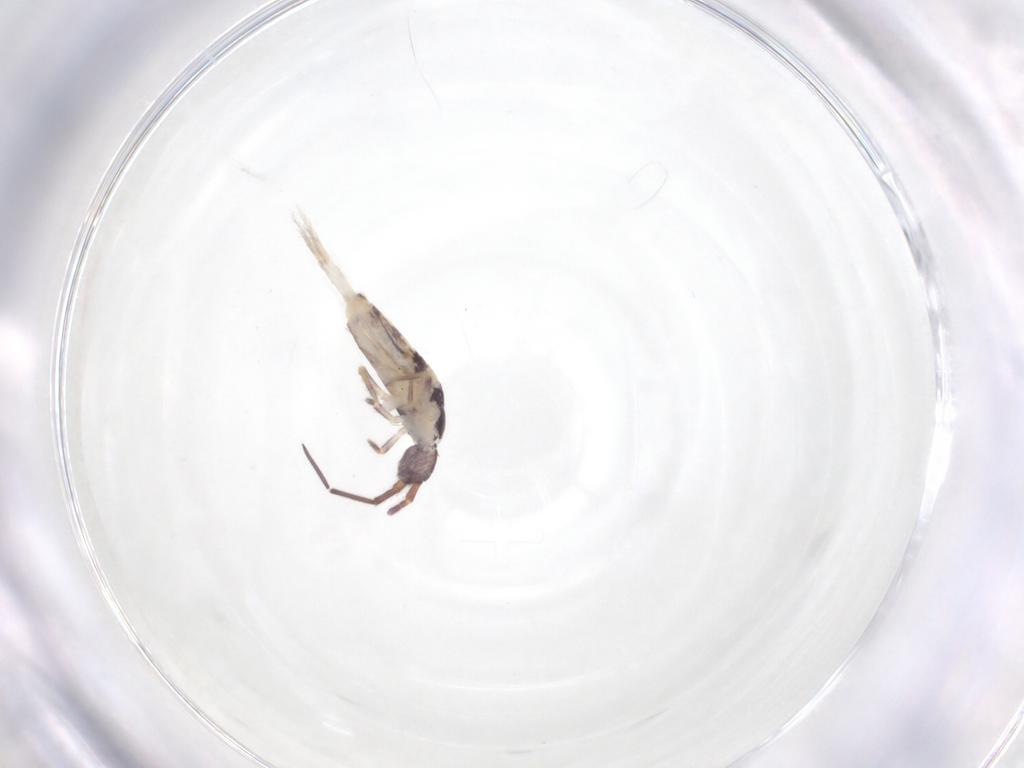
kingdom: Animalia
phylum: Arthropoda
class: Collembola
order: Entomobryomorpha
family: Entomobryidae
